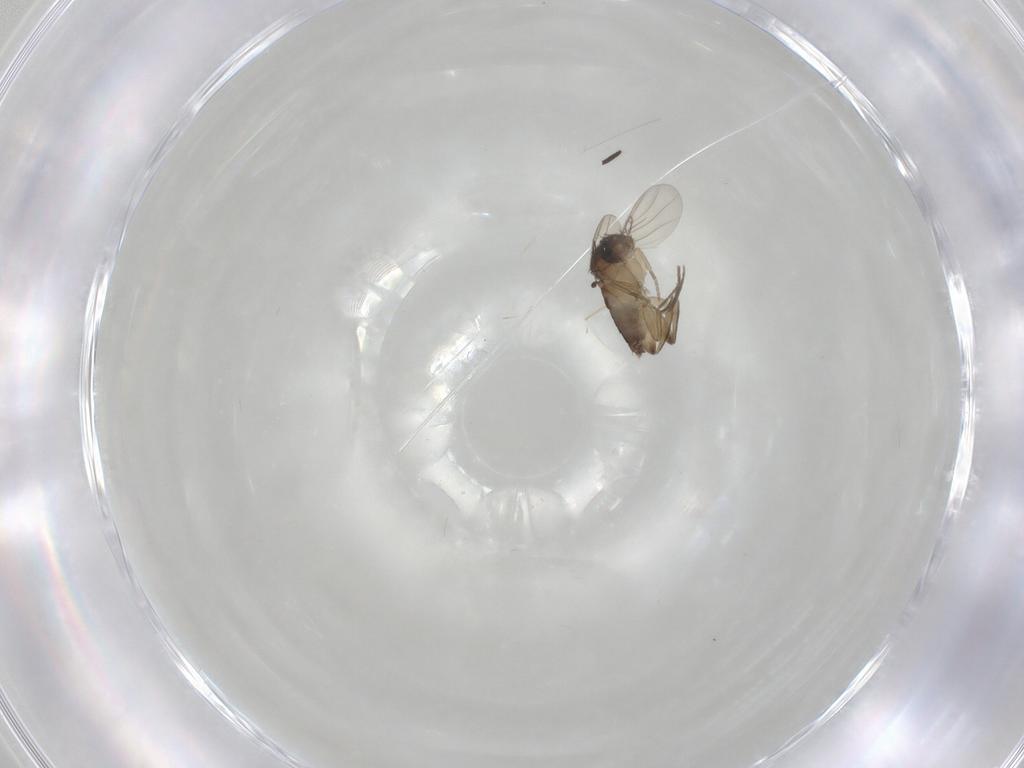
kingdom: Animalia
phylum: Arthropoda
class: Insecta
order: Diptera
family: Phoridae
